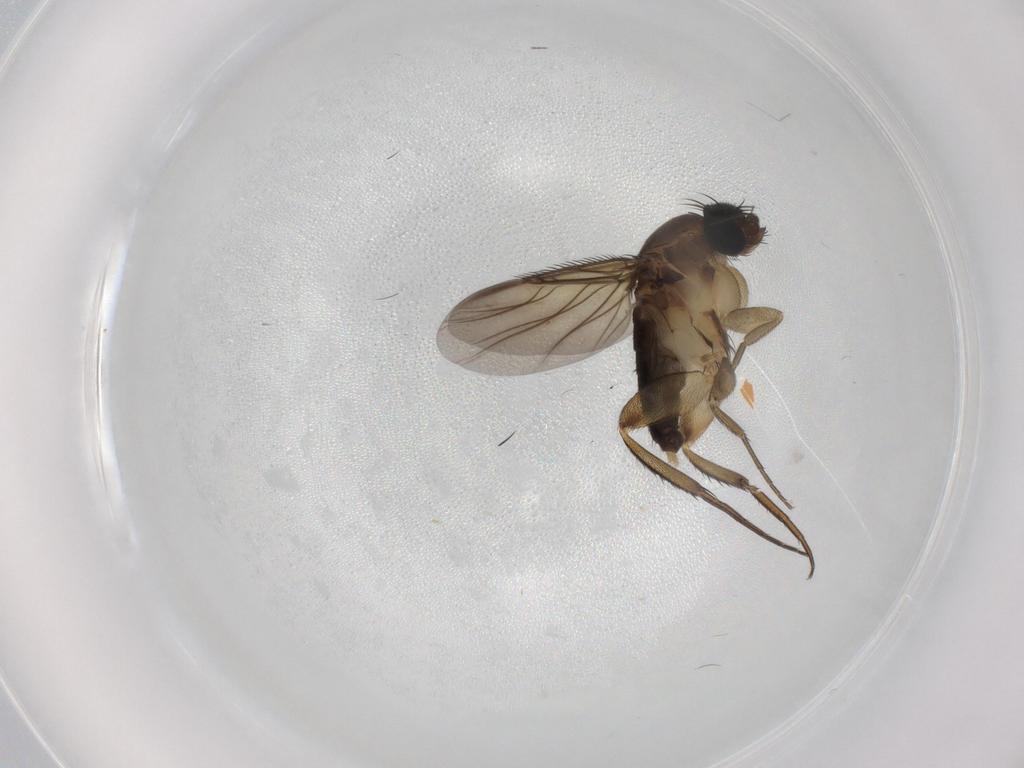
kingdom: Animalia
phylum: Arthropoda
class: Insecta
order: Diptera
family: Phoridae
